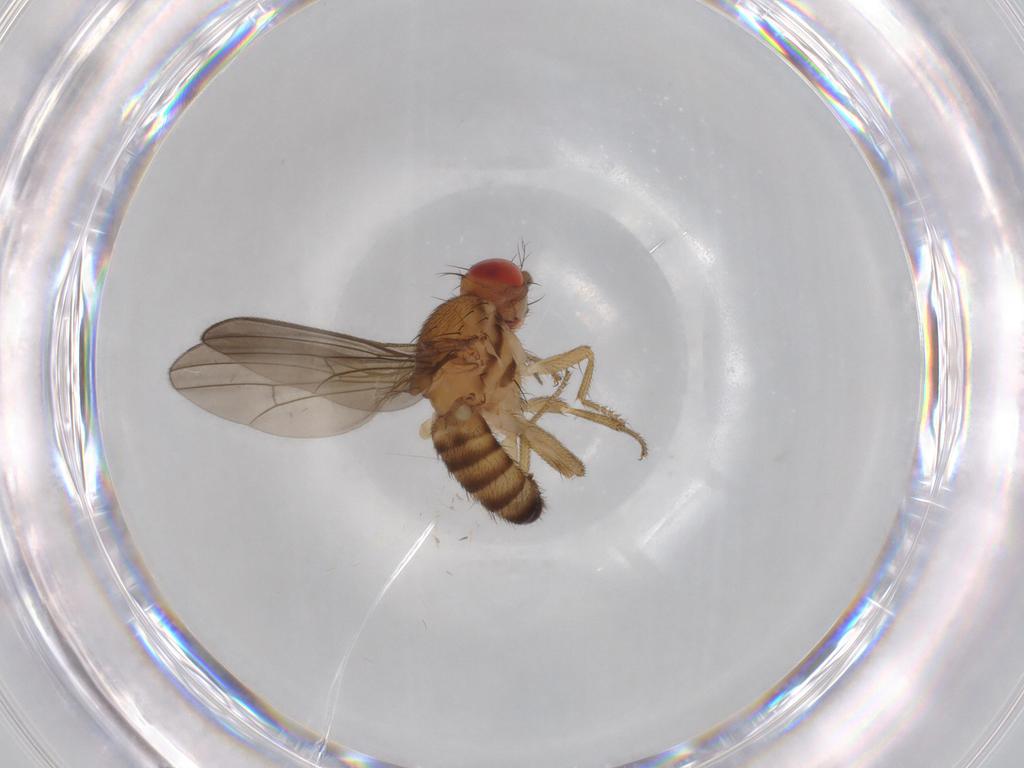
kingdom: Animalia
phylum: Arthropoda
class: Insecta
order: Diptera
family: Drosophilidae
